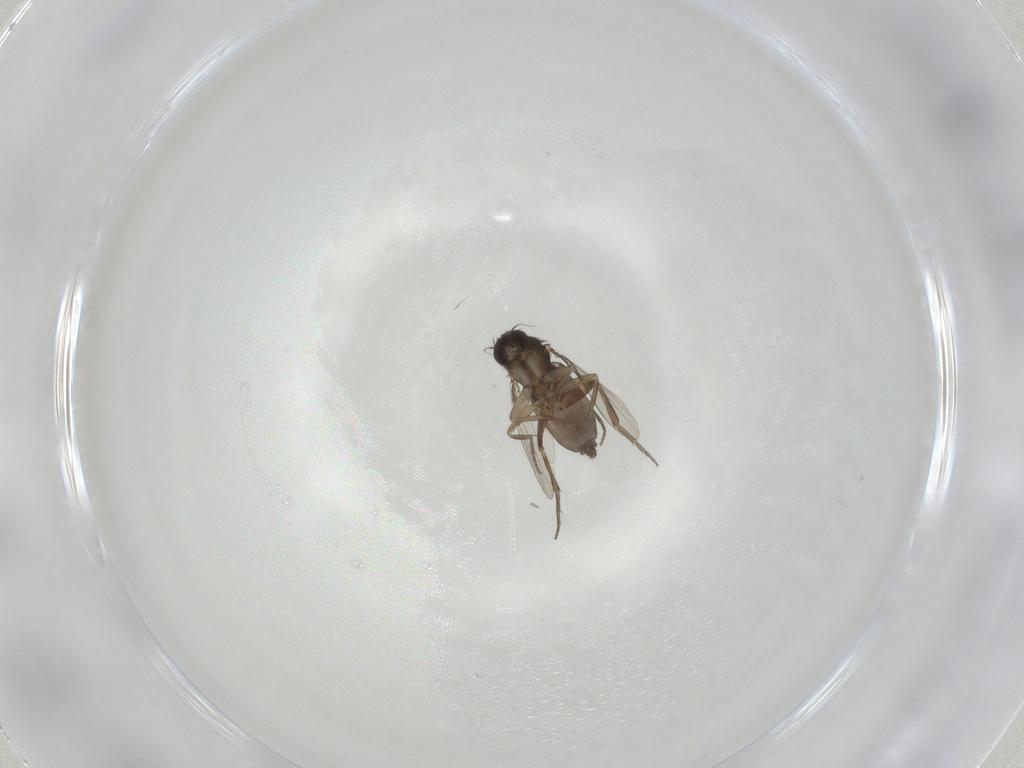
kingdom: Animalia
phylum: Arthropoda
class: Insecta
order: Diptera
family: Phoridae
